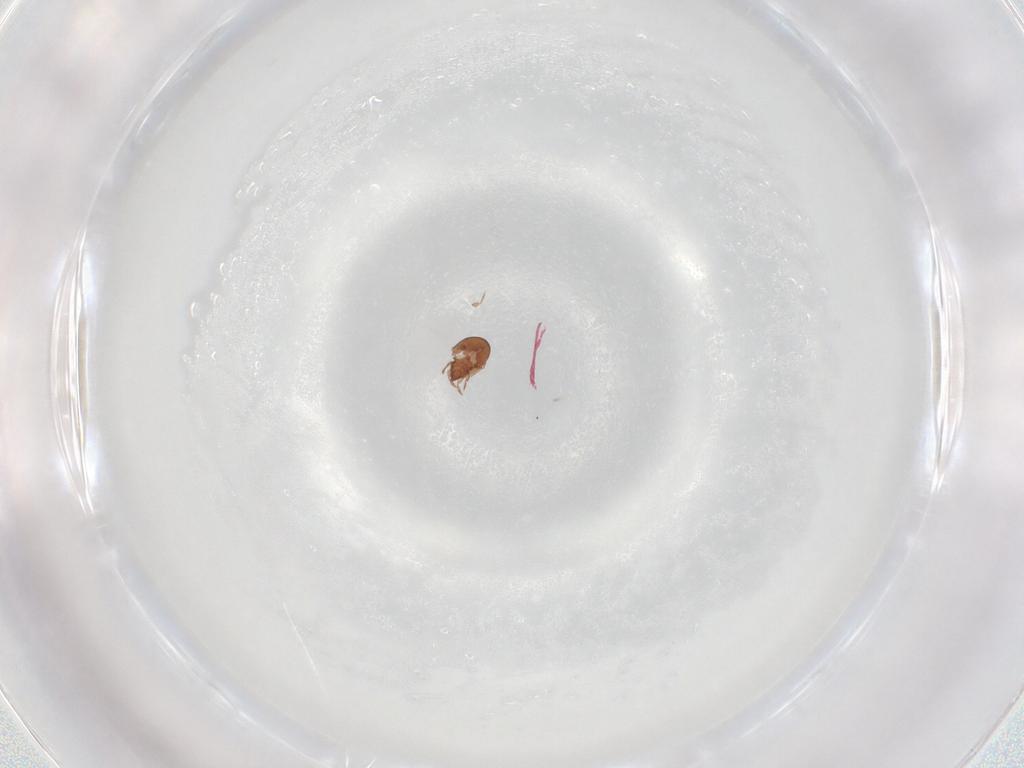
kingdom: Animalia
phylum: Arthropoda
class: Arachnida
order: Sarcoptiformes
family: Scheloribatidae
